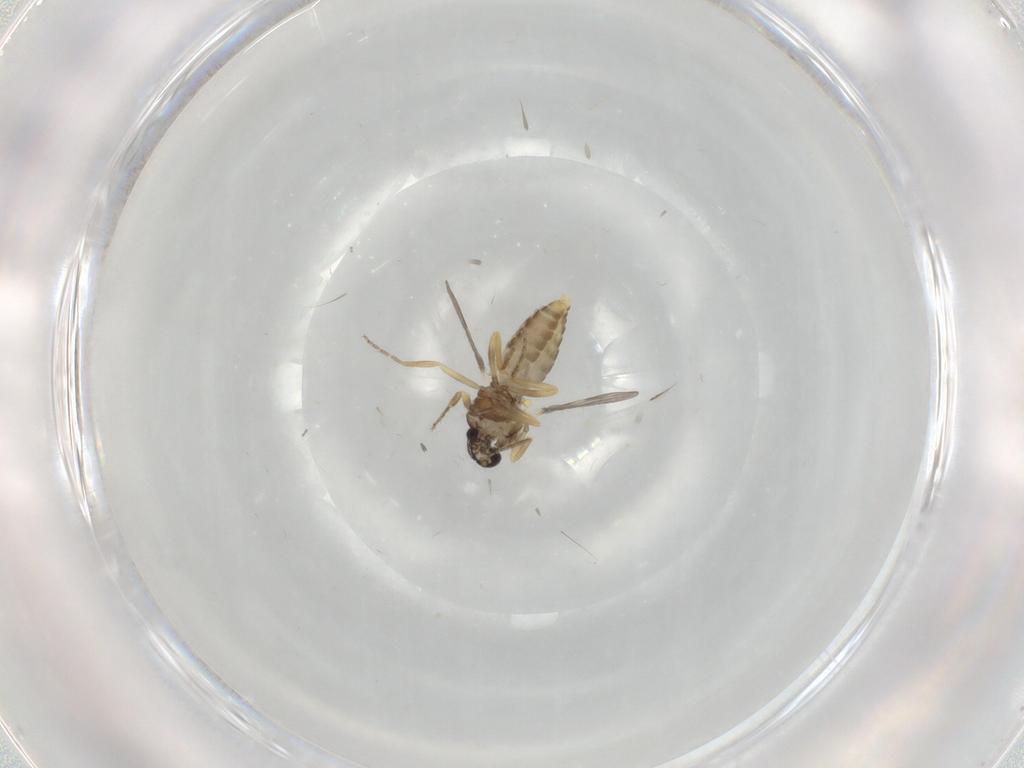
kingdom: Animalia
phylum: Arthropoda
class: Insecta
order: Diptera
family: Ceratopogonidae
